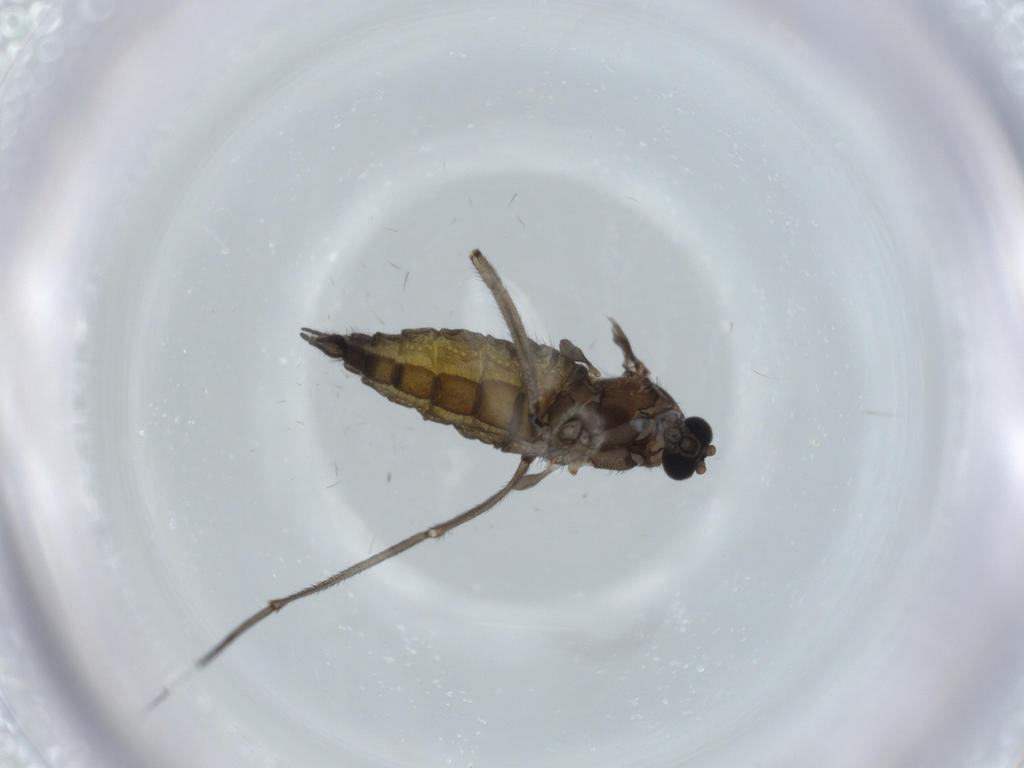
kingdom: Animalia
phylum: Arthropoda
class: Insecta
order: Diptera
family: Sciaridae
